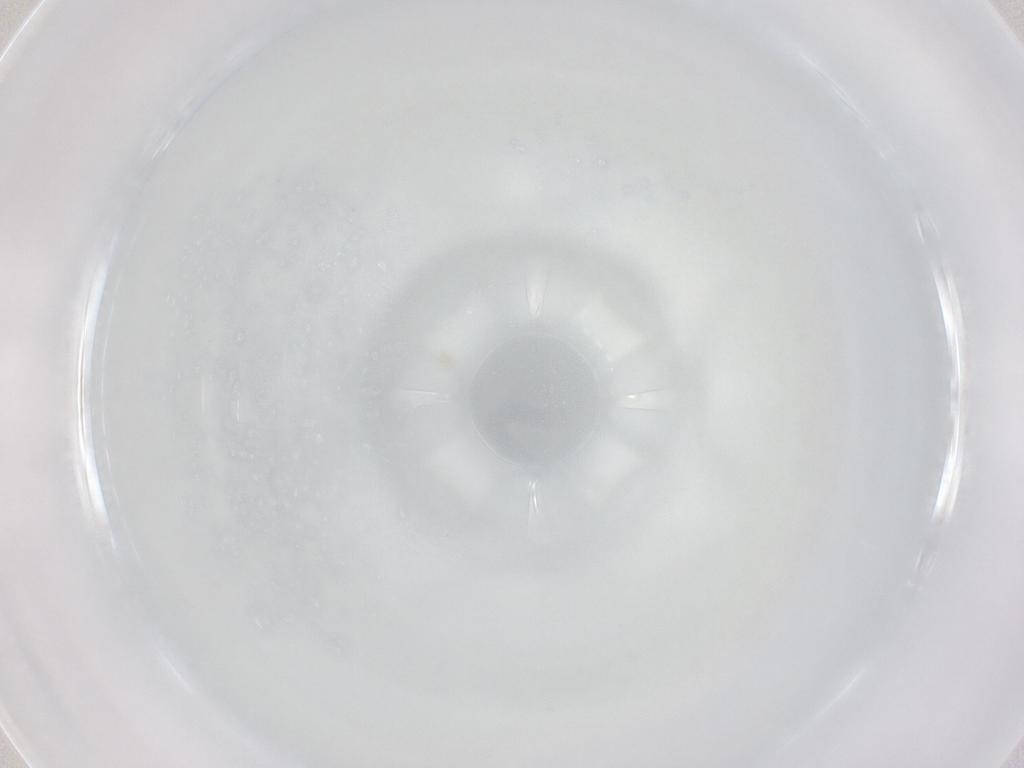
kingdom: Animalia
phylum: Arthropoda
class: Insecta
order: Hymenoptera
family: Mymaridae
